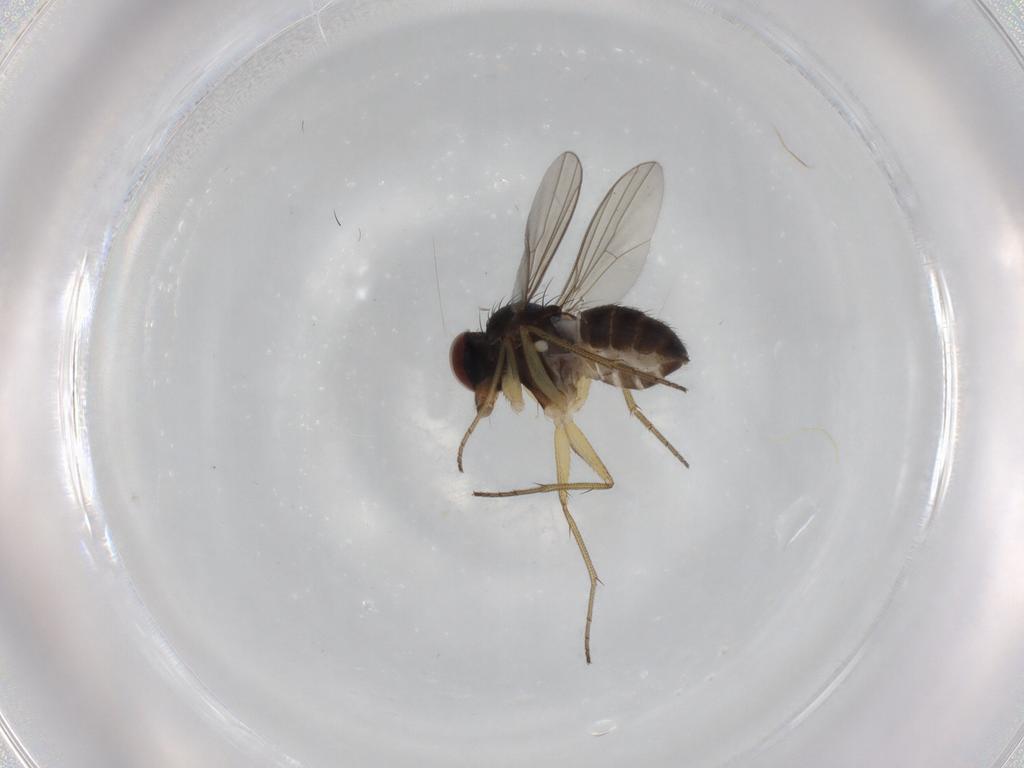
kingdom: Animalia
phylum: Arthropoda
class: Insecta
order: Diptera
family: Dolichopodidae
